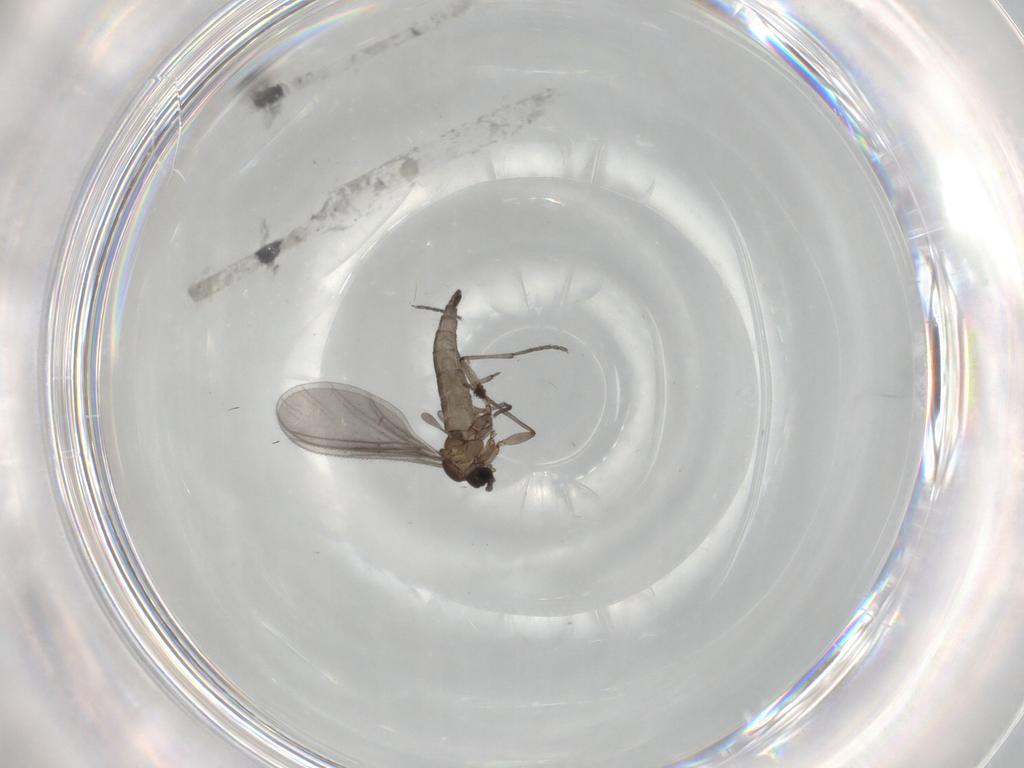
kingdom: Animalia
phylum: Arthropoda
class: Insecta
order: Diptera
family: Sciaridae
